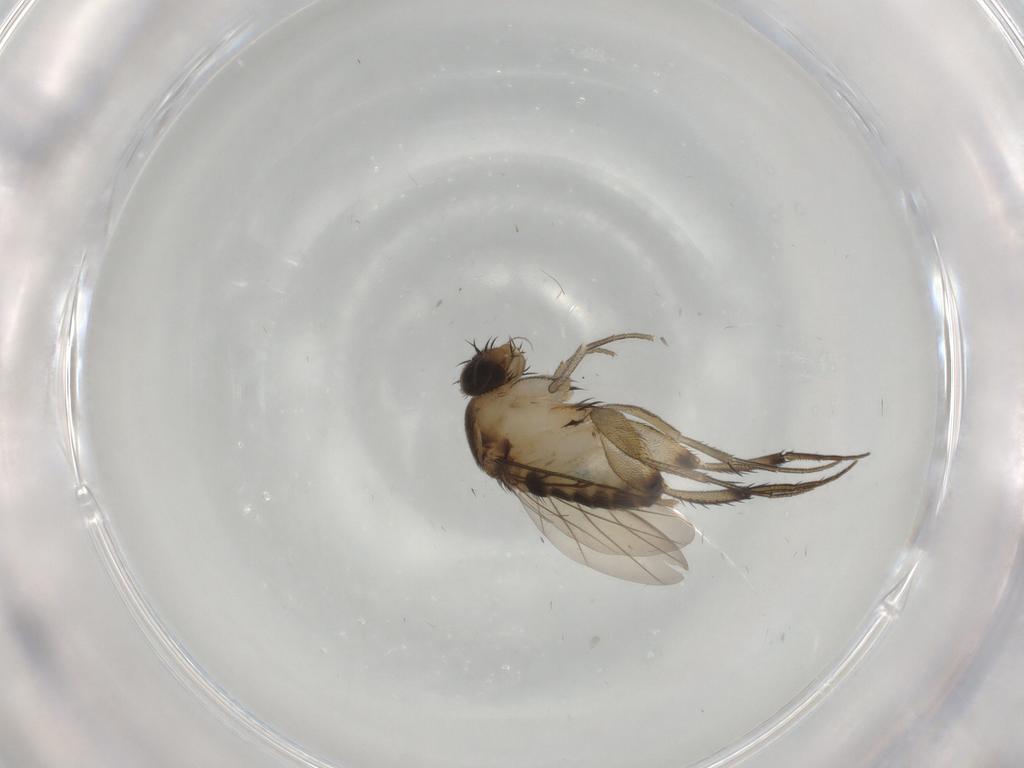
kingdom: Animalia
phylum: Arthropoda
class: Insecta
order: Diptera
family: Phoridae
